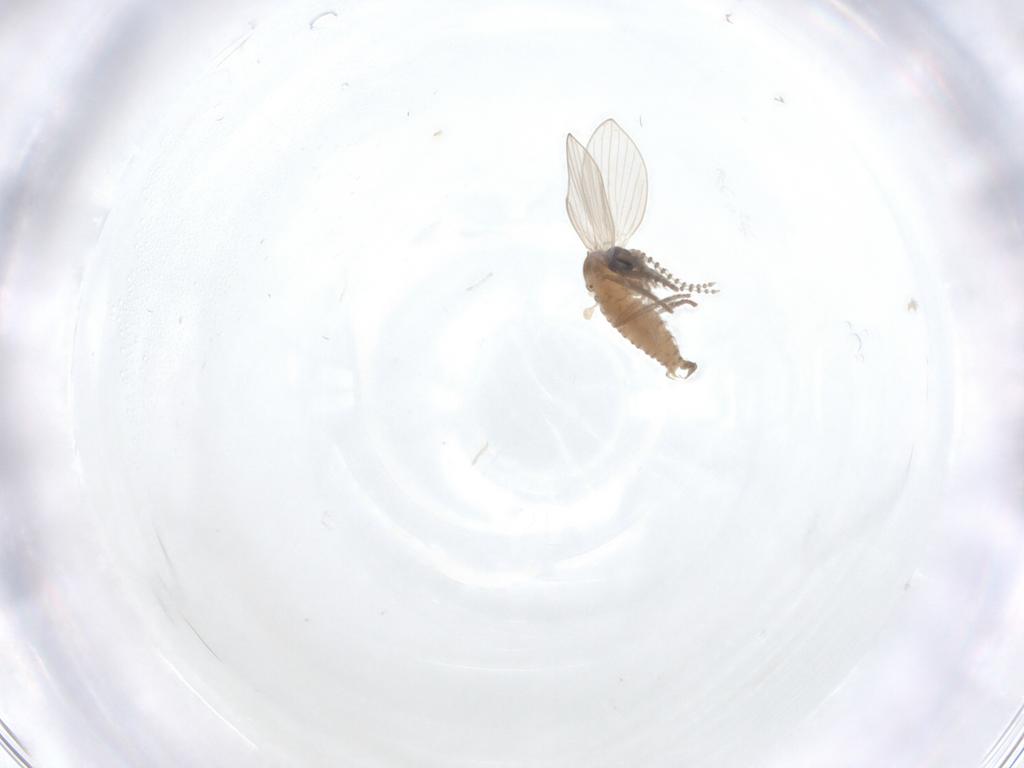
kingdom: Animalia
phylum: Arthropoda
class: Insecta
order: Diptera
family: Psychodidae
